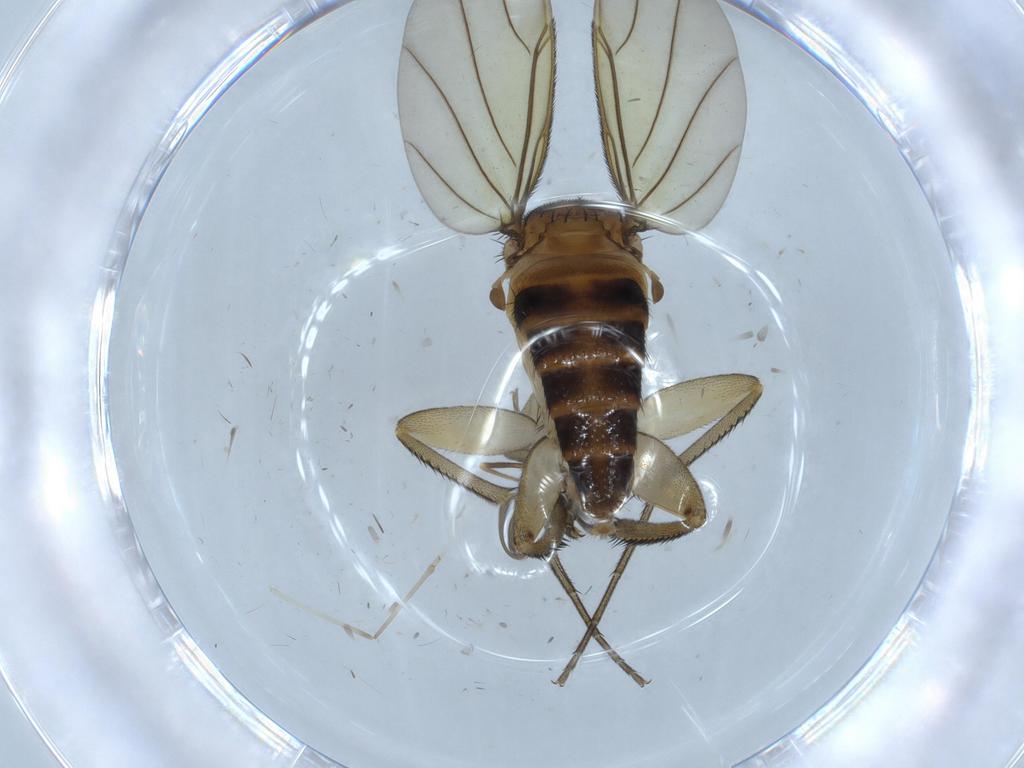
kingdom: Animalia
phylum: Arthropoda
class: Insecta
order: Diptera
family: Cecidomyiidae
